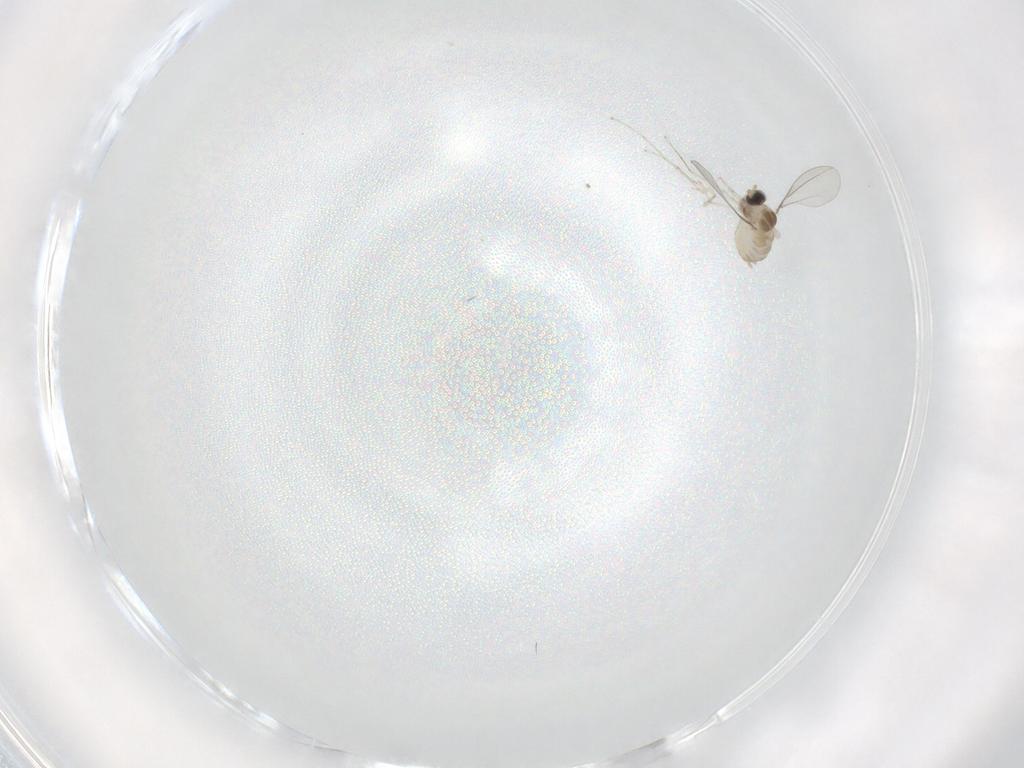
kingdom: Animalia
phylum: Arthropoda
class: Insecta
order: Diptera
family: Cecidomyiidae
